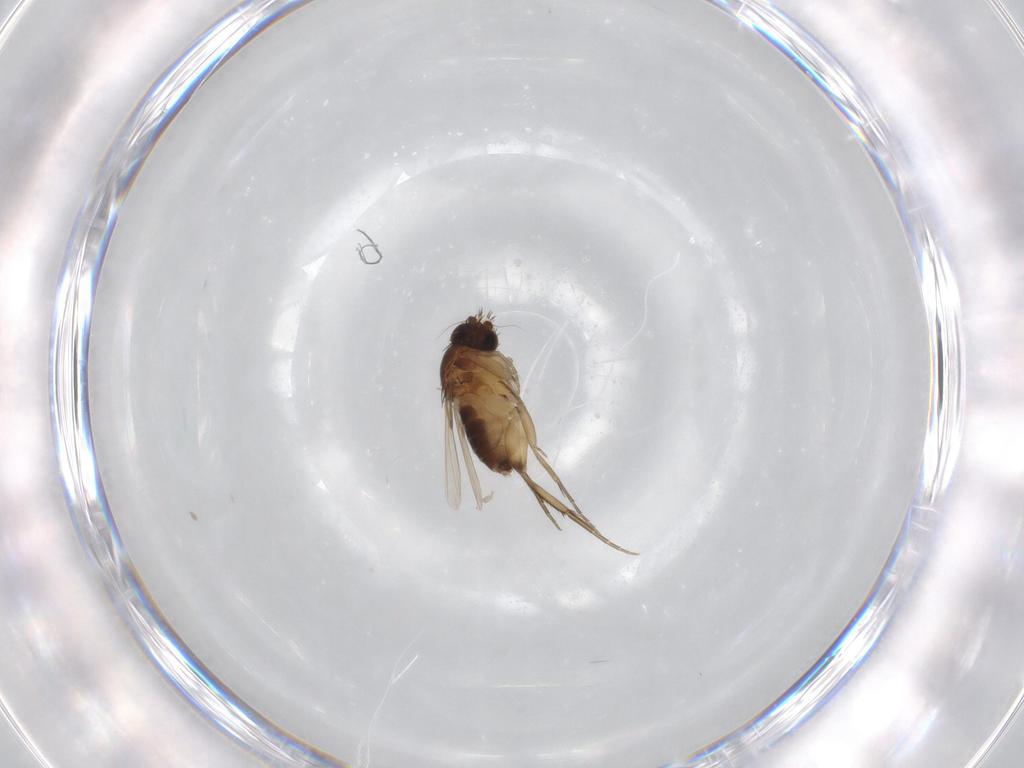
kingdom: Animalia
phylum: Arthropoda
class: Insecta
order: Diptera
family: Phoridae
